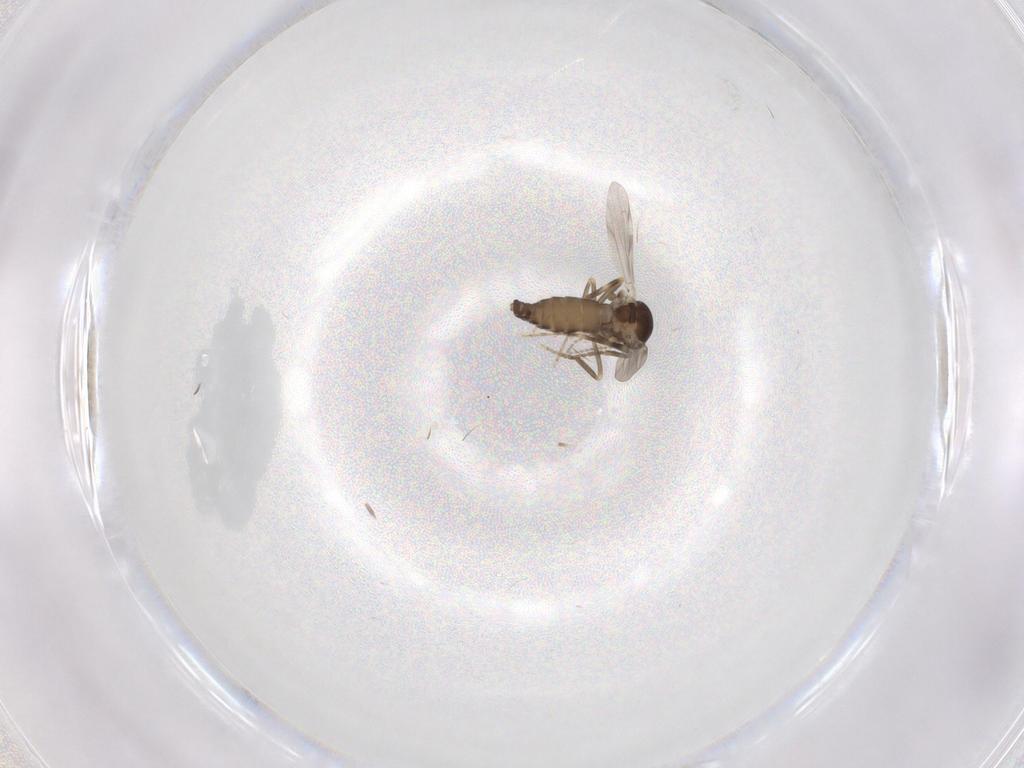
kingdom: Animalia
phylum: Arthropoda
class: Insecta
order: Diptera
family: Ceratopogonidae
